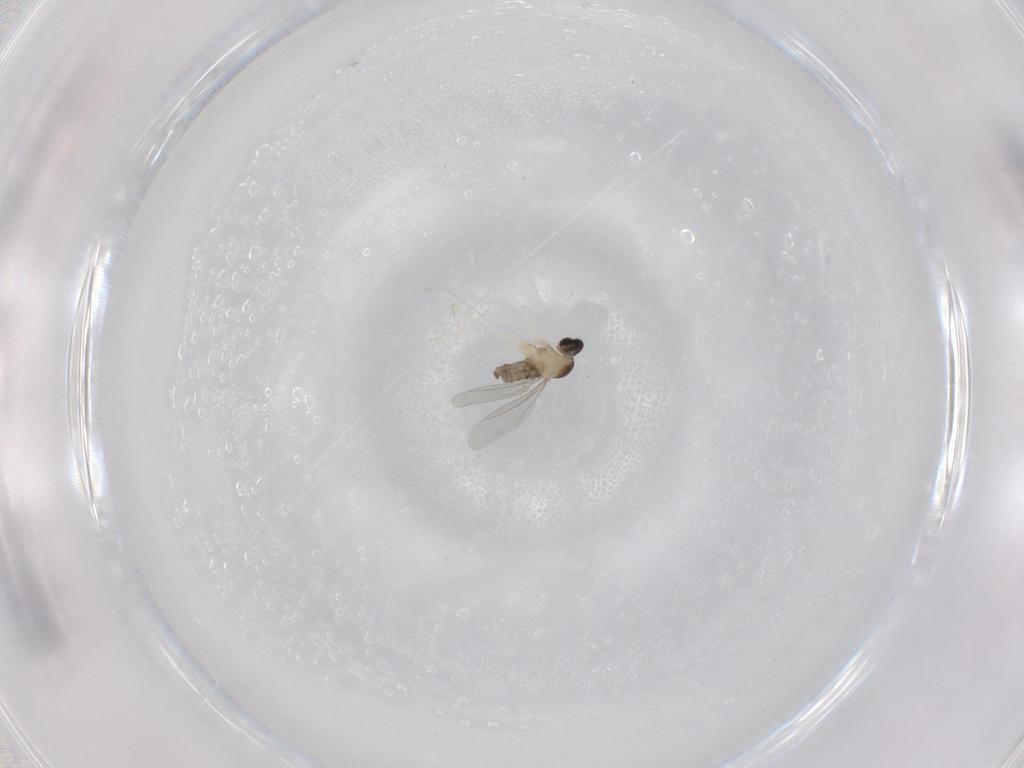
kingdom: Animalia
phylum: Arthropoda
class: Insecta
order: Diptera
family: Cecidomyiidae
